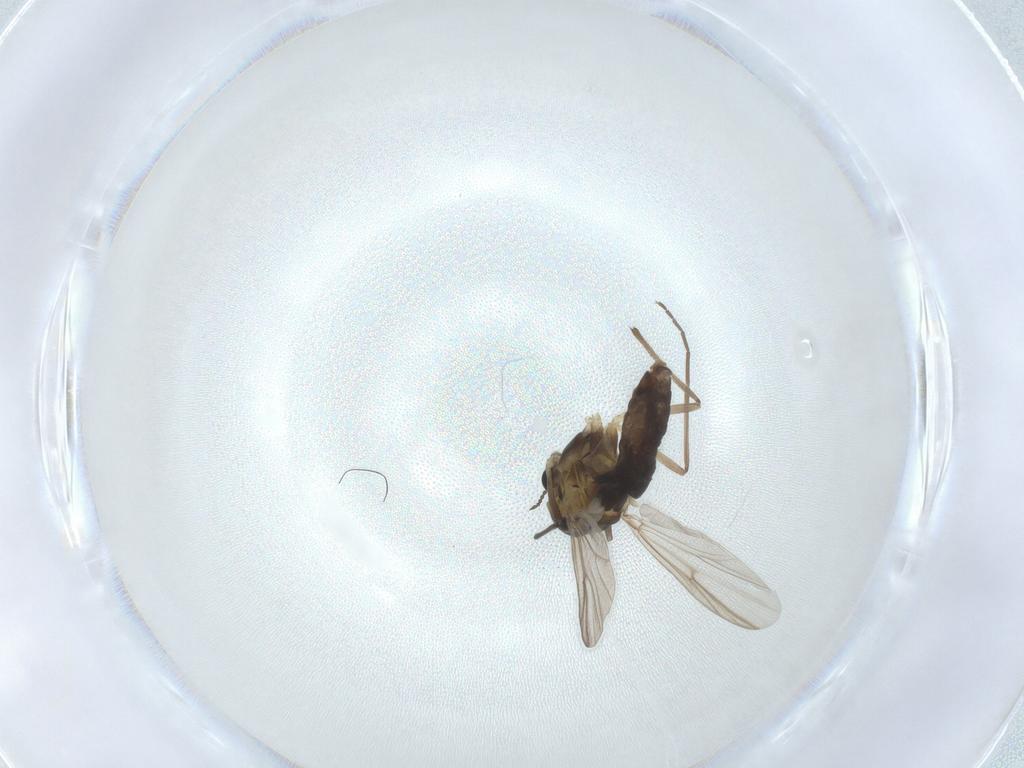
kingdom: Animalia
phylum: Arthropoda
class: Insecta
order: Diptera
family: Chironomidae
